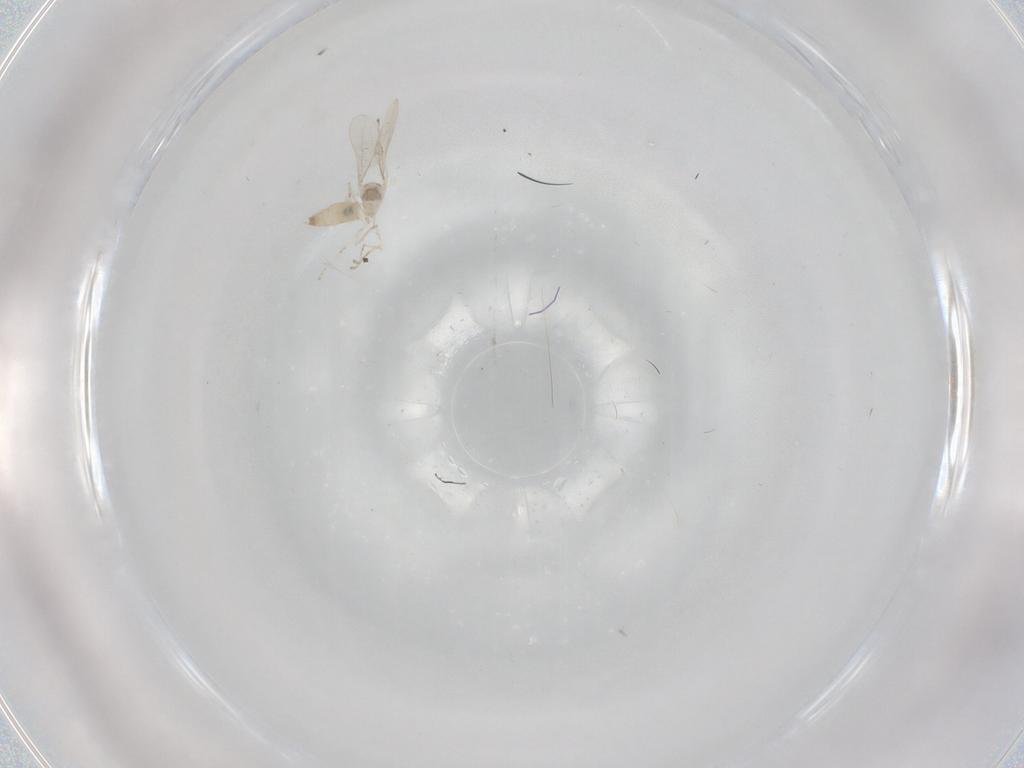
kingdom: Animalia
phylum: Arthropoda
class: Insecta
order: Diptera
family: Cecidomyiidae
